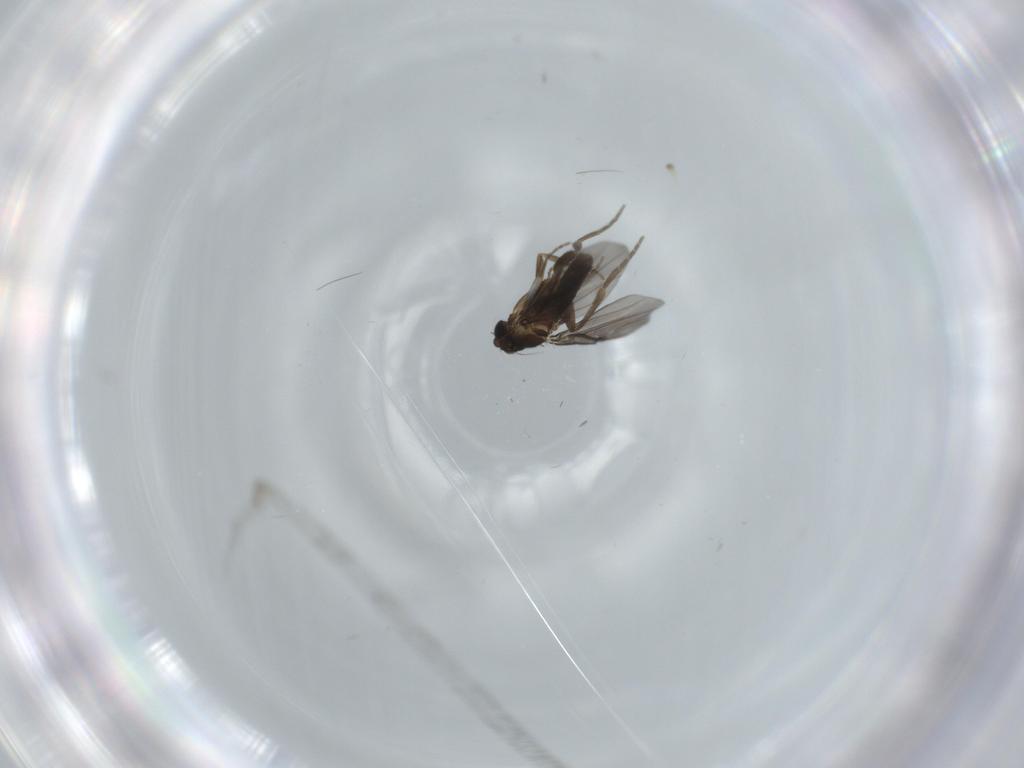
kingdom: Animalia
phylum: Arthropoda
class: Insecta
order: Diptera
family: Phoridae
